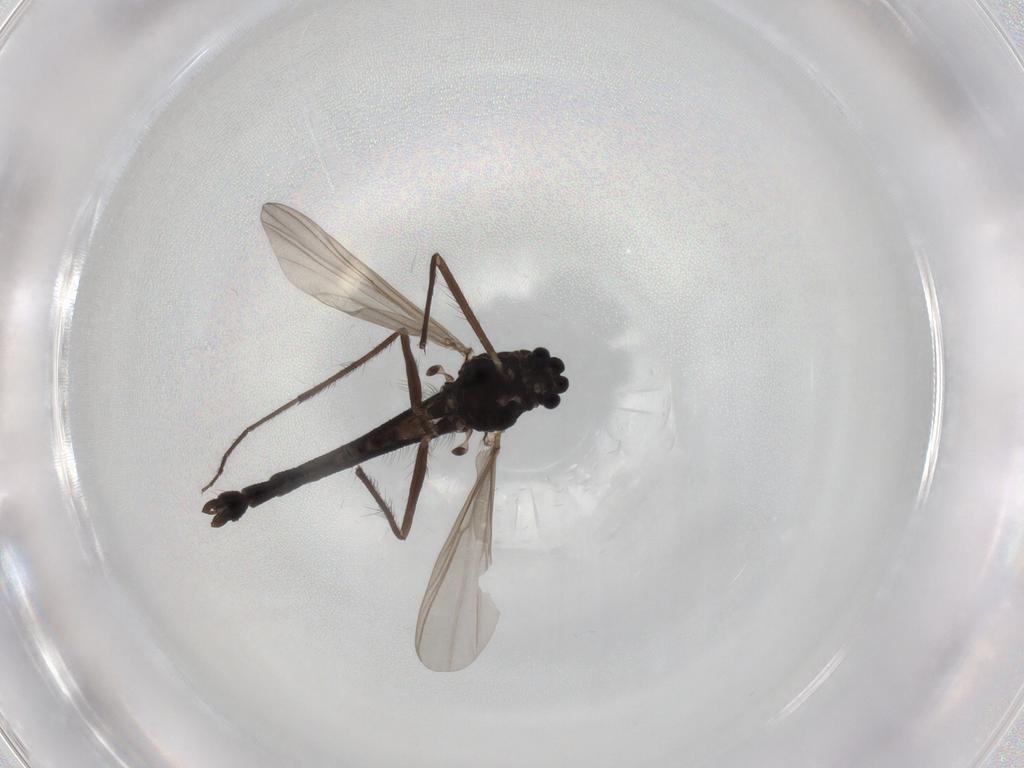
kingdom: Animalia
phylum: Arthropoda
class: Insecta
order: Diptera
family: Chironomidae
